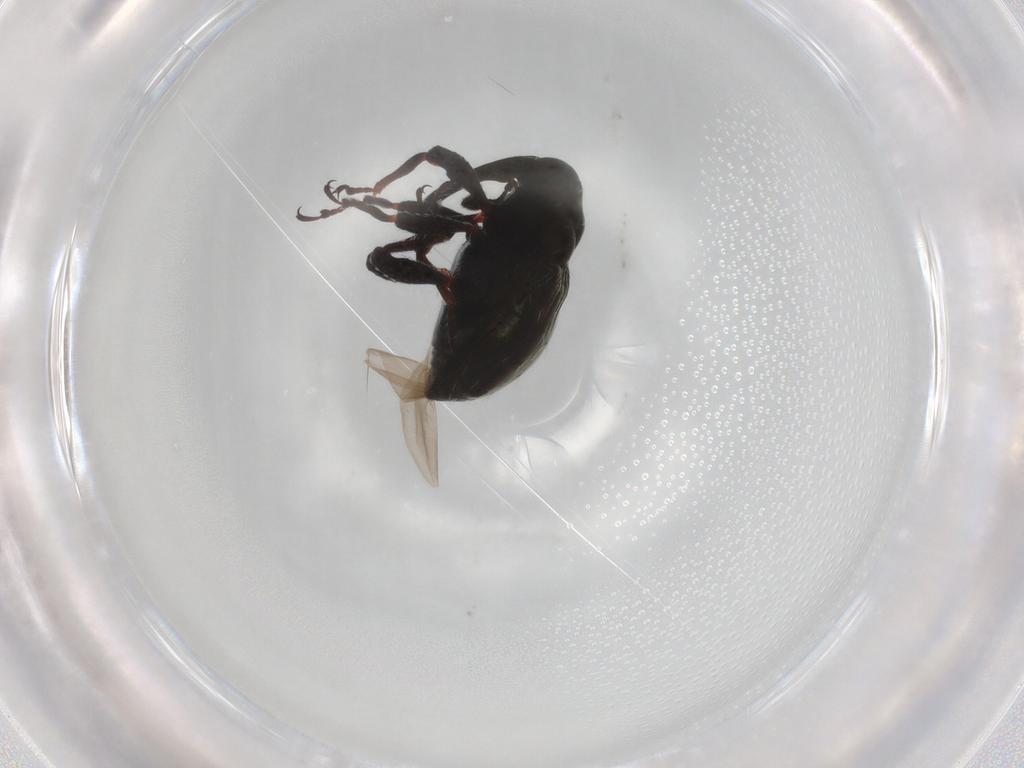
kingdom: Animalia
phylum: Arthropoda
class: Insecta
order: Coleoptera
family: Curculionidae
